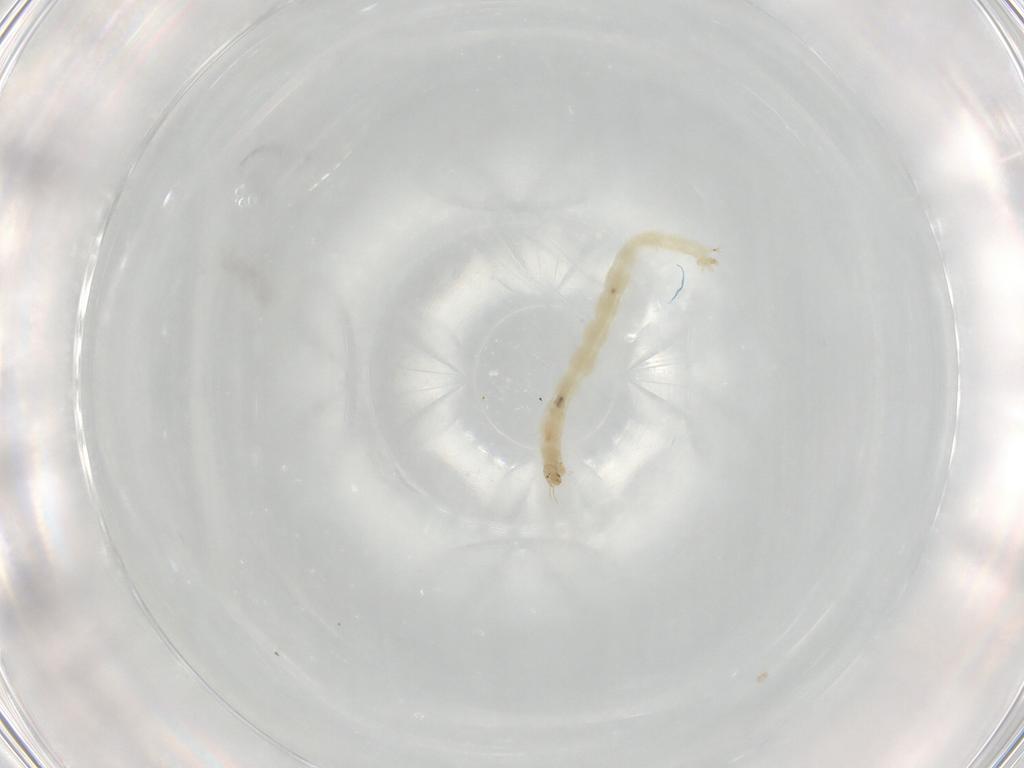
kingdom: Animalia
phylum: Arthropoda
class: Insecta
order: Diptera
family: Chironomidae
